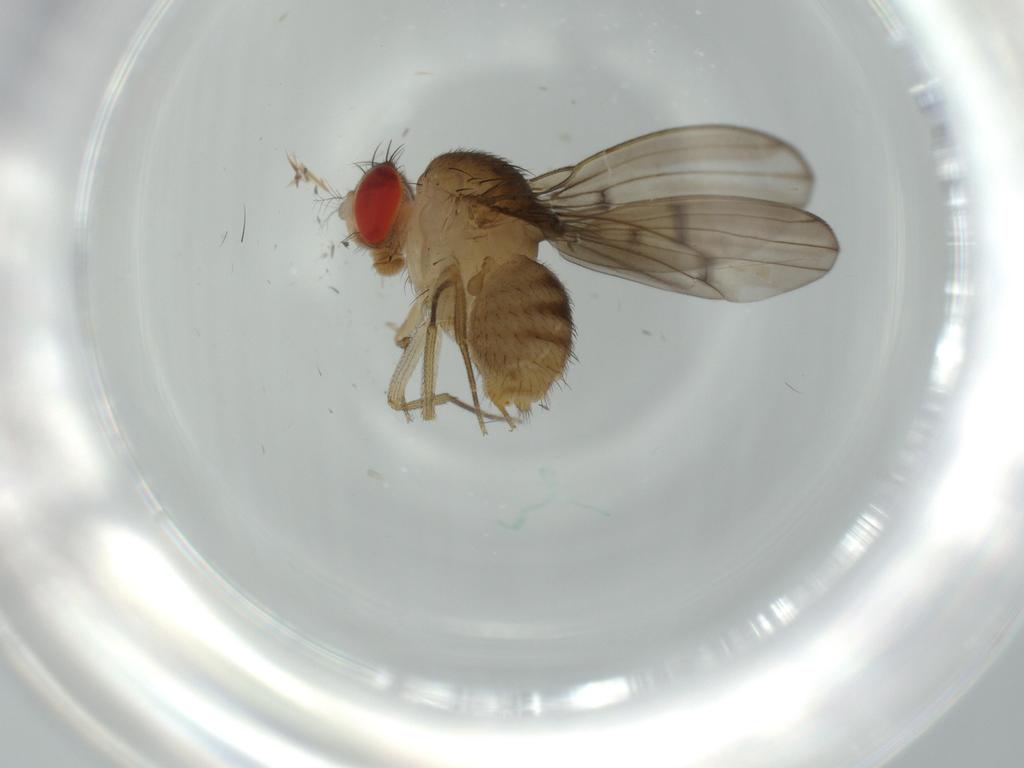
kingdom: Animalia
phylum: Arthropoda
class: Insecta
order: Diptera
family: Drosophilidae
